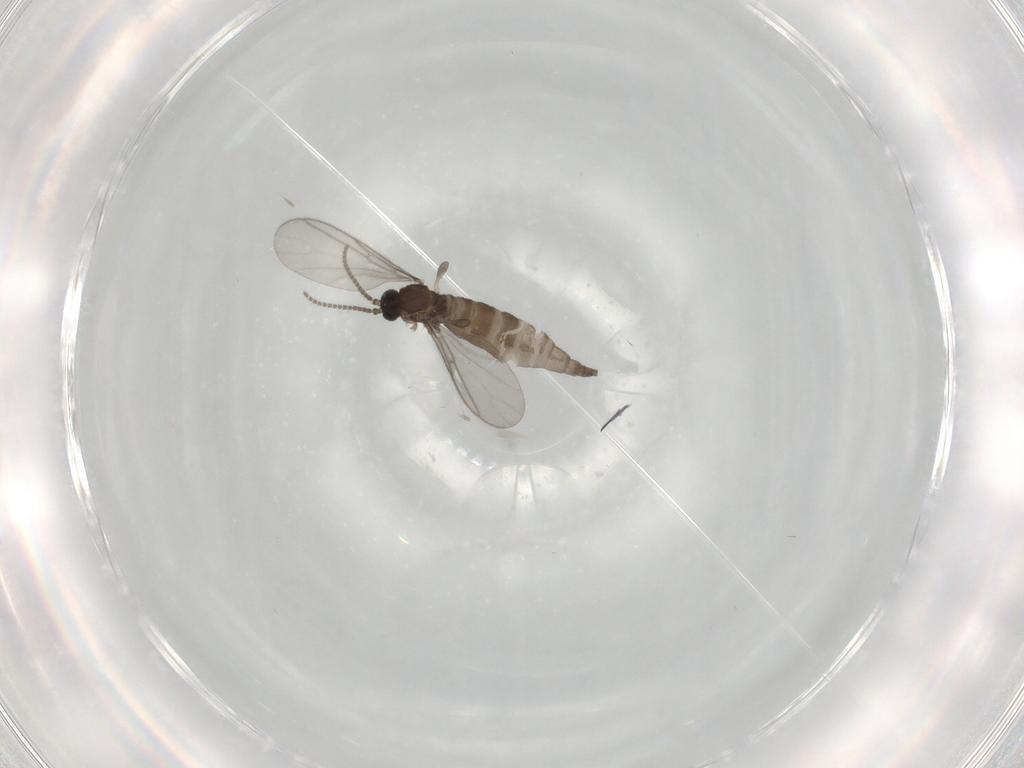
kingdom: Animalia
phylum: Arthropoda
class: Insecta
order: Diptera
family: Sciaridae
